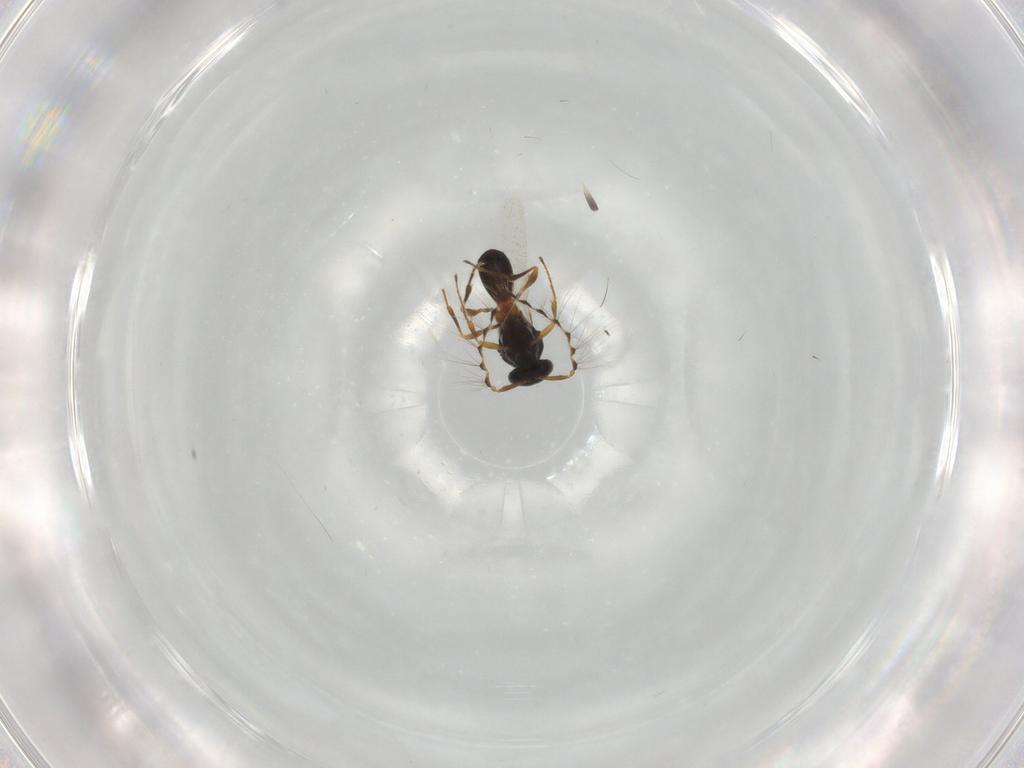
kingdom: Animalia
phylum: Arthropoda
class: Insecta
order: Hymenoptera
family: Platygastridae
